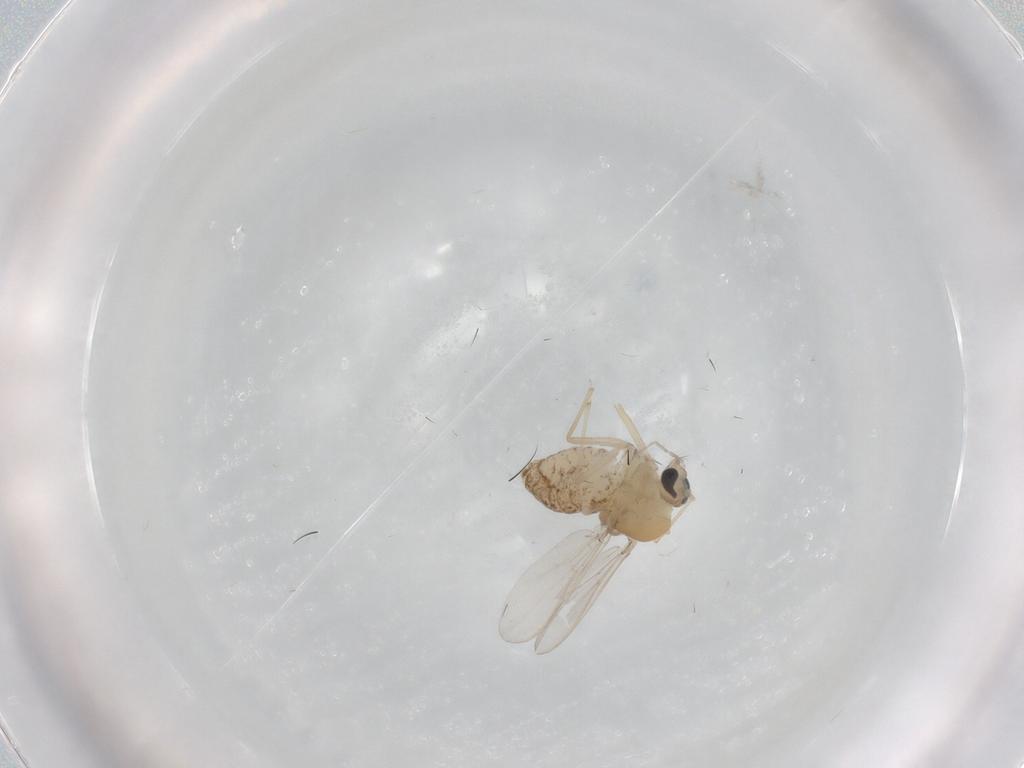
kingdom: Animalia
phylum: Arthropoda
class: Insecta
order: Diptera
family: Chironomidae
